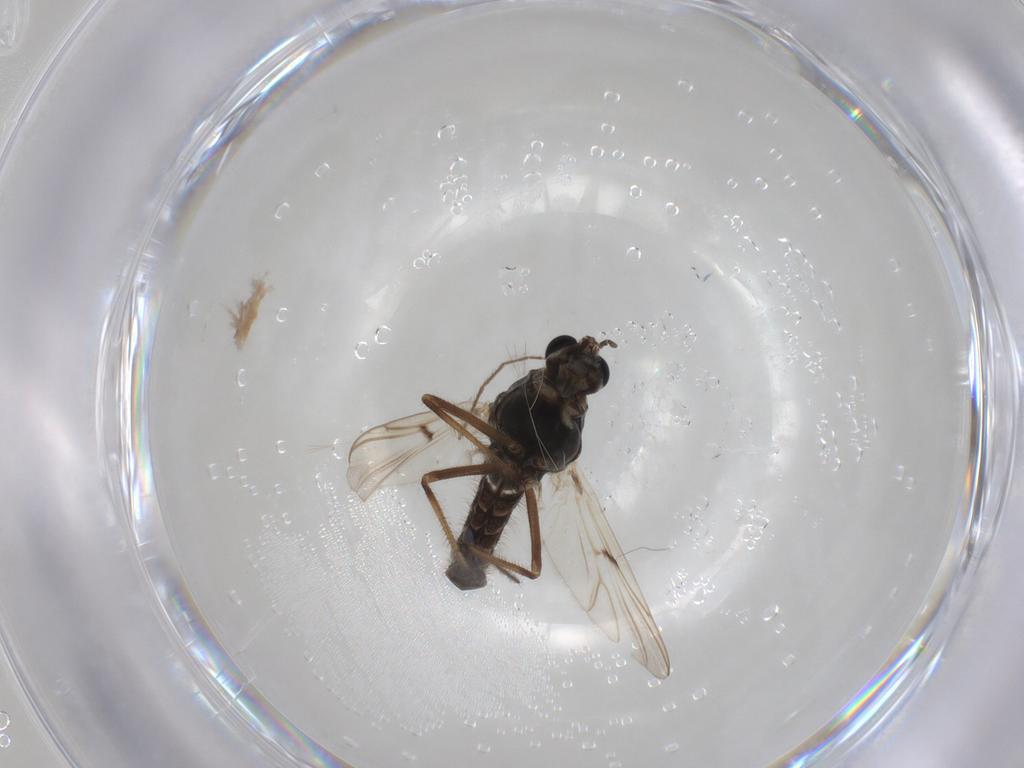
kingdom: Animalia
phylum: Arthropoda
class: Insecta
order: Diptera
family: Chironomidae
